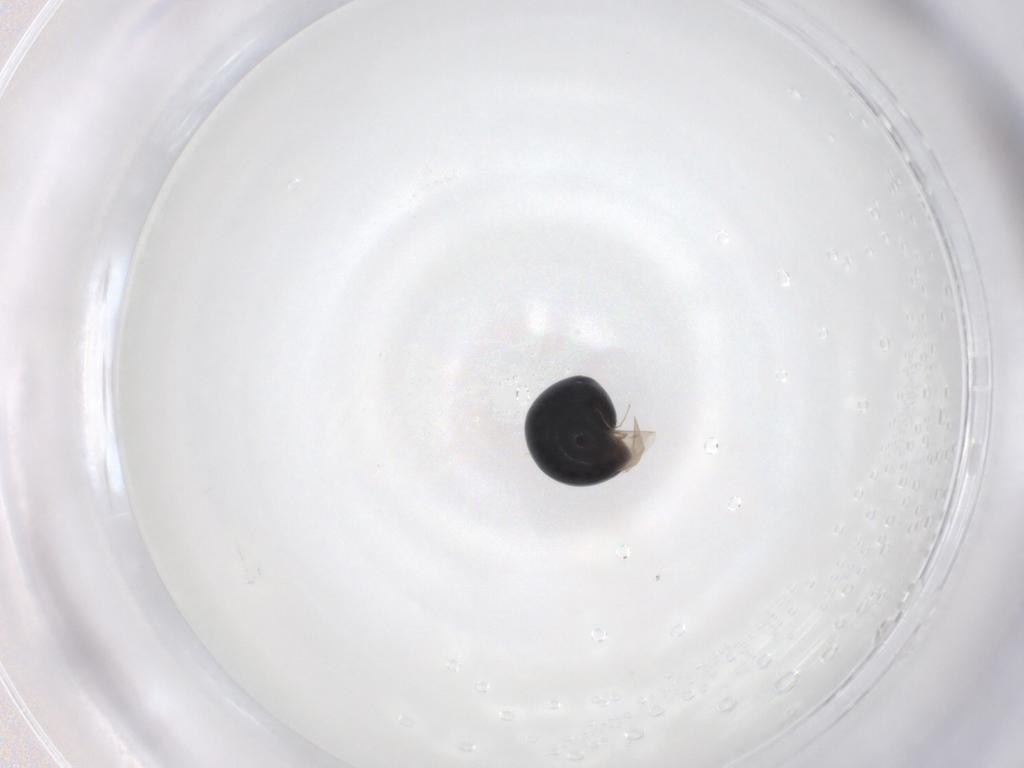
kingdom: Animalia
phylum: Arthropoda
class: Insecta
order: Coleoptera
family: Cybocephalidae
